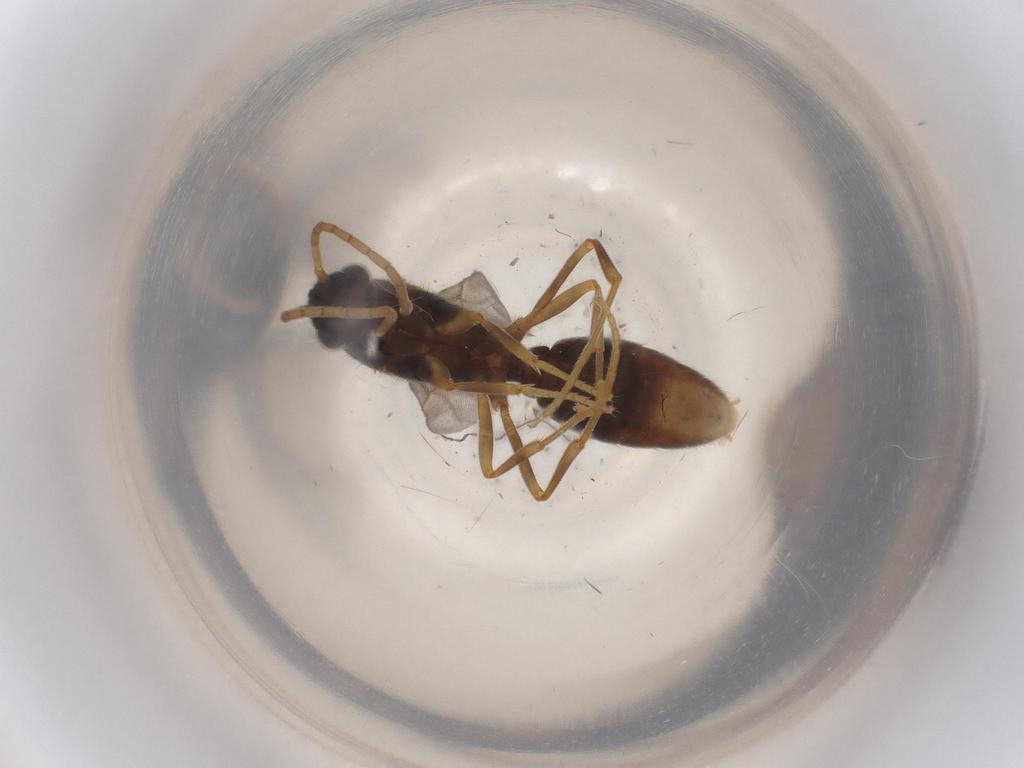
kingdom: Animalia
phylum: Arthropoda
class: Insecta
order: Hymenoptera
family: Formicidae
